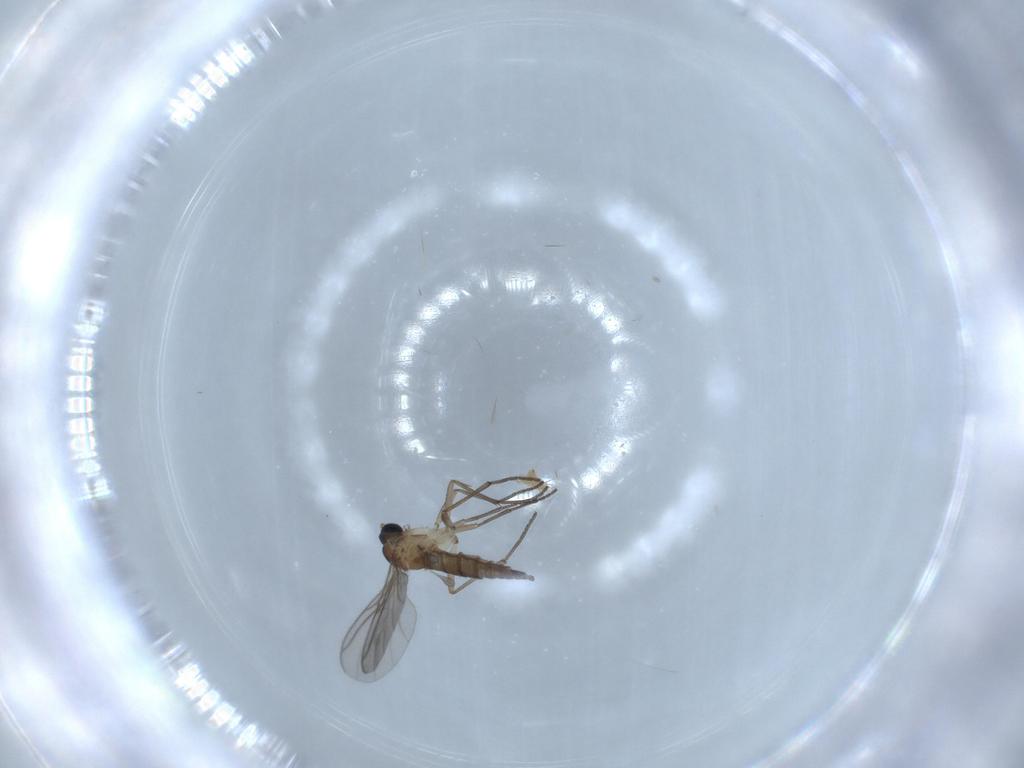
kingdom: Animalia
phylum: Arthropoda
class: Insecta
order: Diptera
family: Sciaridae
